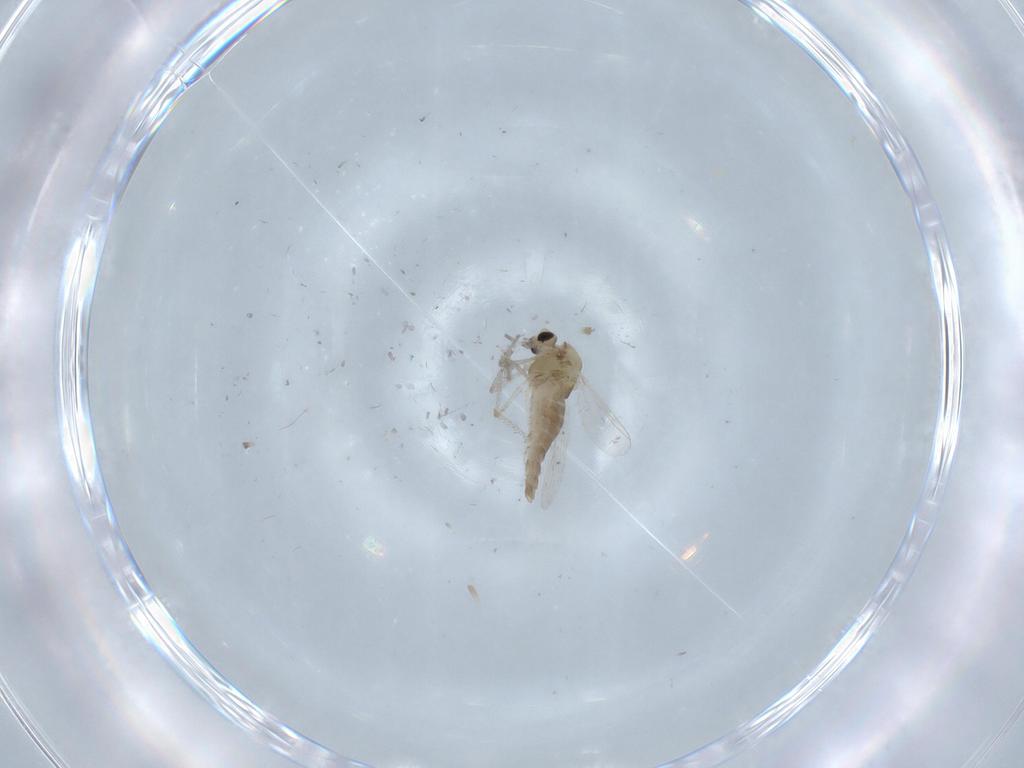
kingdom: Animalia
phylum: Arthropoda
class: Insecta
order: Diptera
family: Chironomidae
